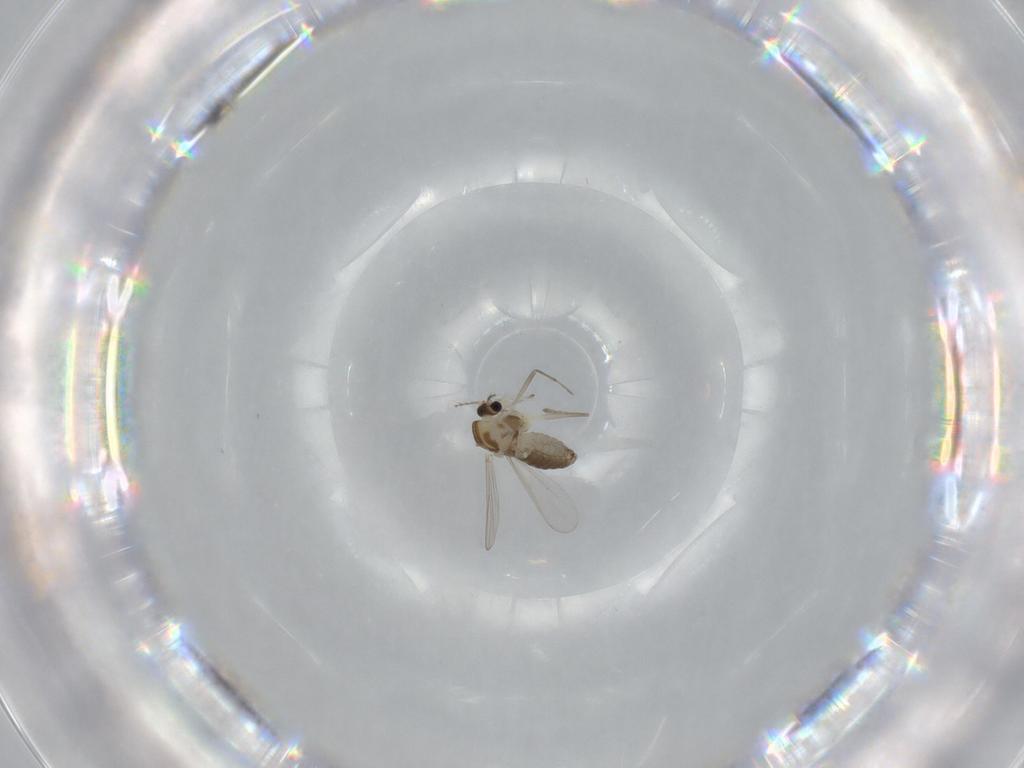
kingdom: Animalia
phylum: Arthropoda
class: Insecta
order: Diptera
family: Chironomidae
